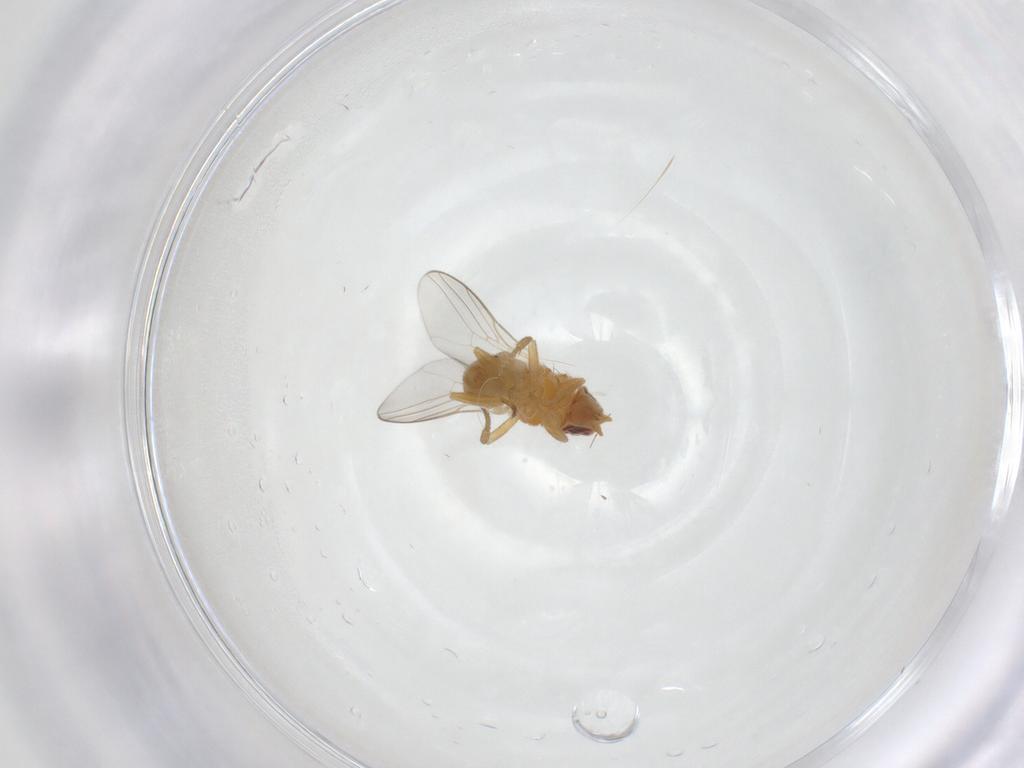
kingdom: Animalia
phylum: Arthropoda
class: Insecta
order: Diptera
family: Chloropidae
